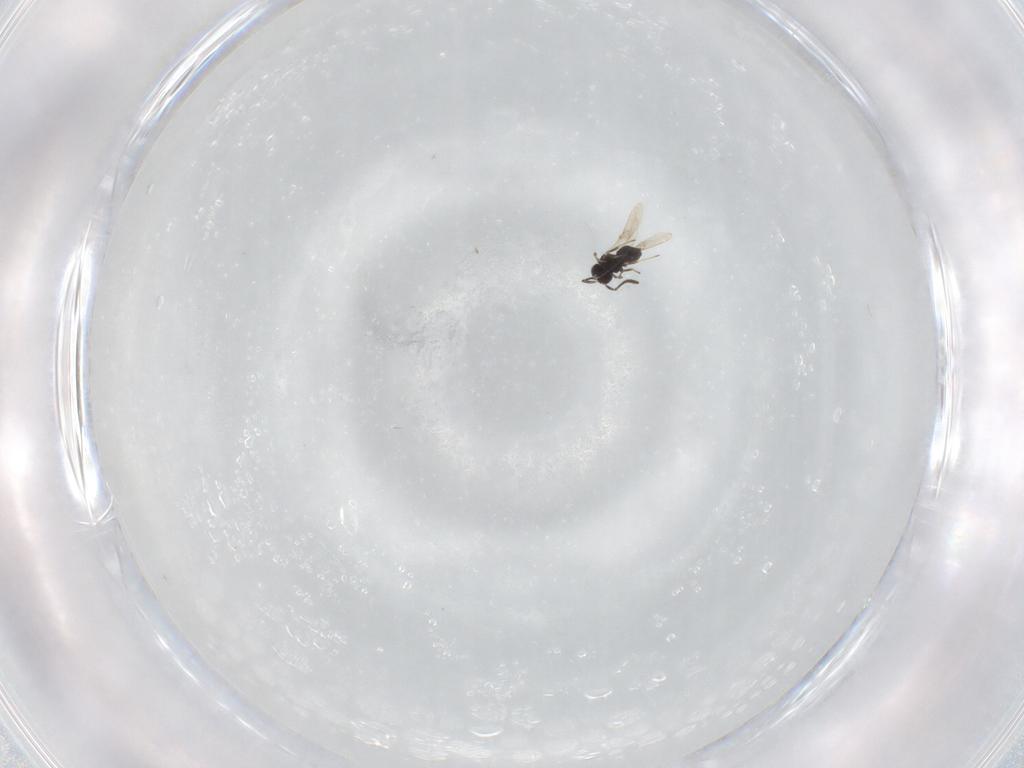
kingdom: Animalia
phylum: Arthropoda
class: Insecta
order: Hymenoptera
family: Scelionidae
